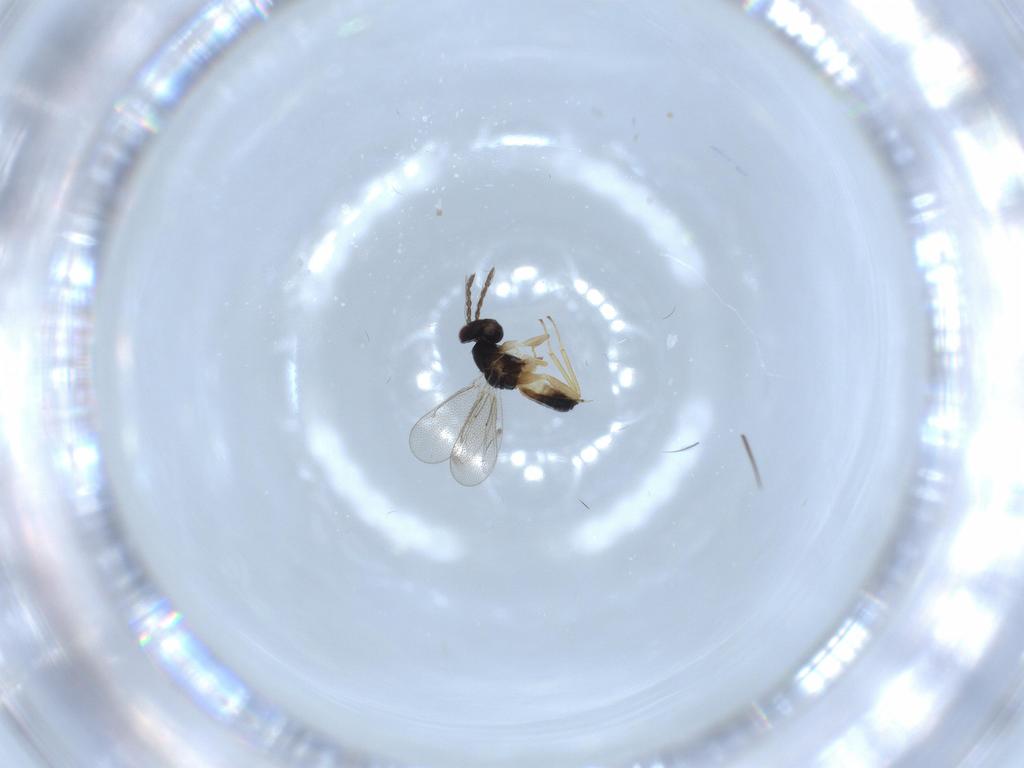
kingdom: Animalia
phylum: Arthropoda
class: Insecta
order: Hymenoptera
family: Eulophidae
